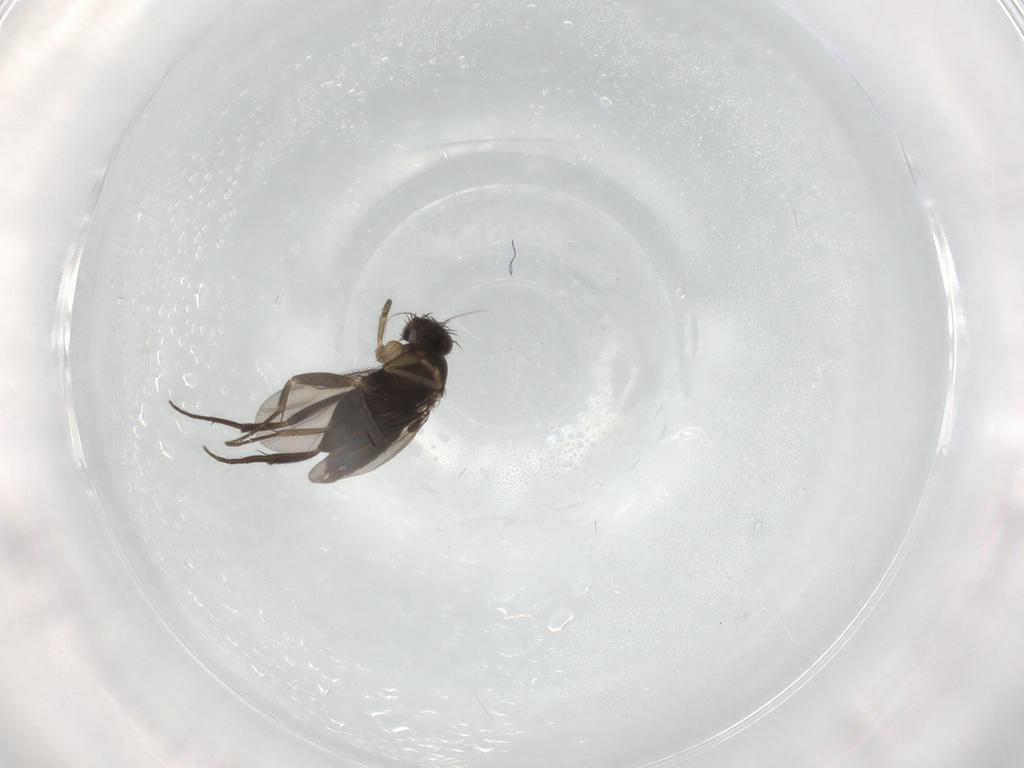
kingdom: Animalia
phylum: Arthropoda
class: Insecta
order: Diptera
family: Phoridae
